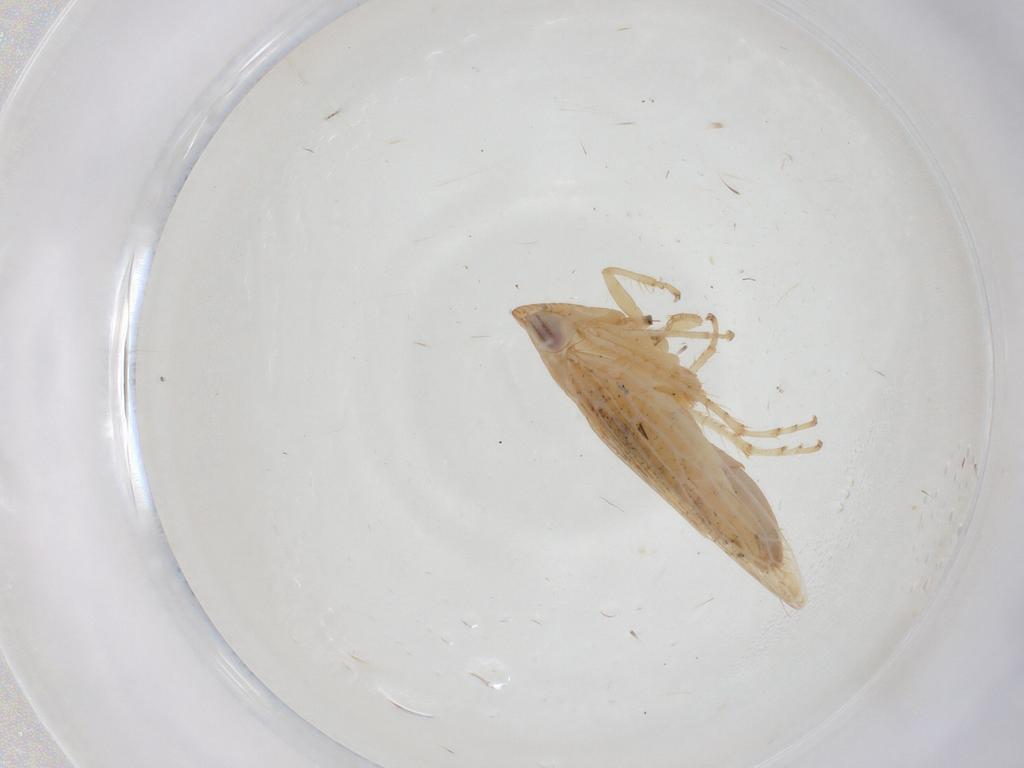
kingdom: Animalia
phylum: Arthropoda
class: Insecta
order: Hemiptera
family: Cicadellidae
